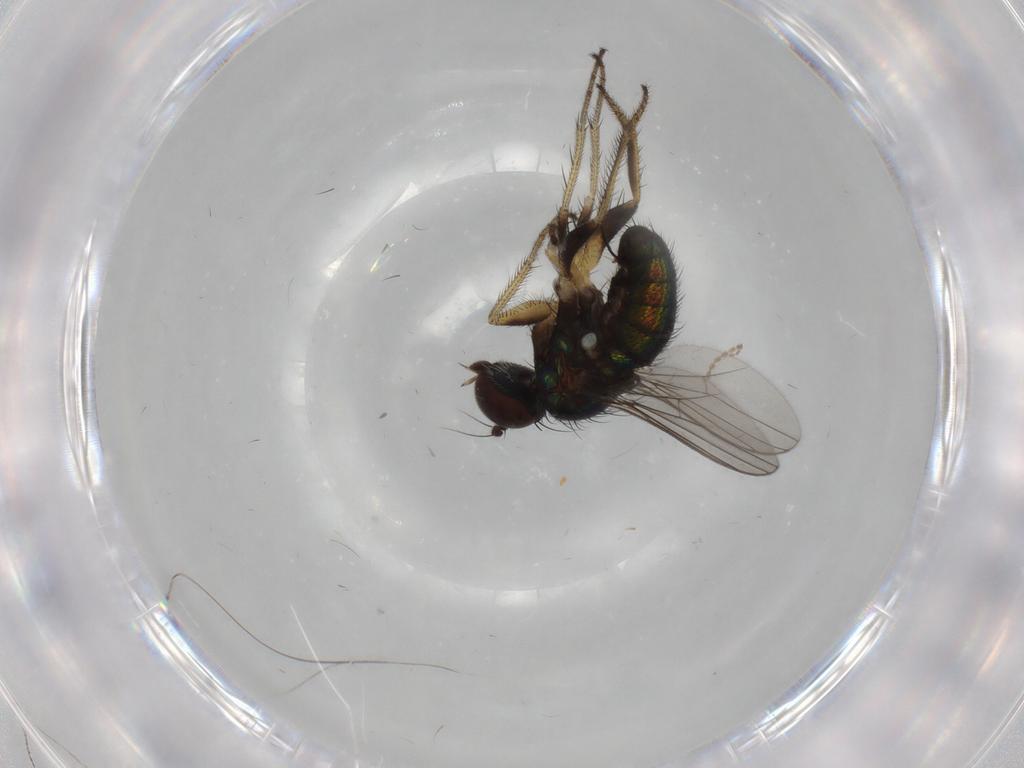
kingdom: Animalia
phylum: Arthropoda
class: Insecta
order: Diptera
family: Dolichopodidae
